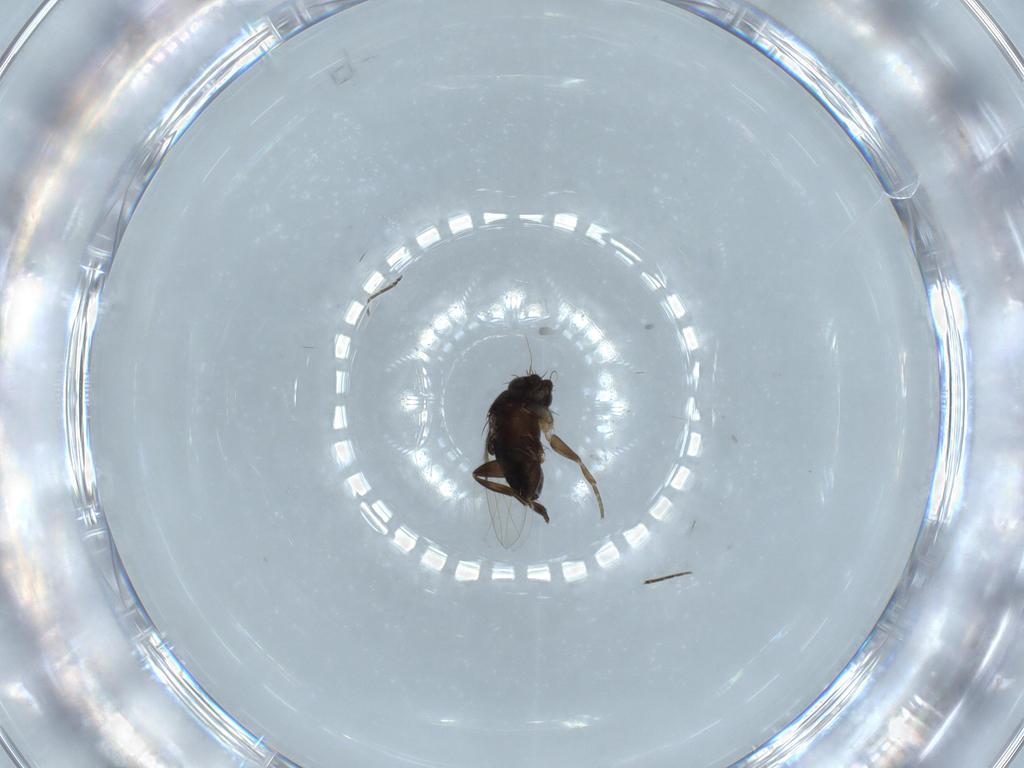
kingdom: Animalia
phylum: Arthropoda
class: Insecta
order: Diptera
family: Phoridae
